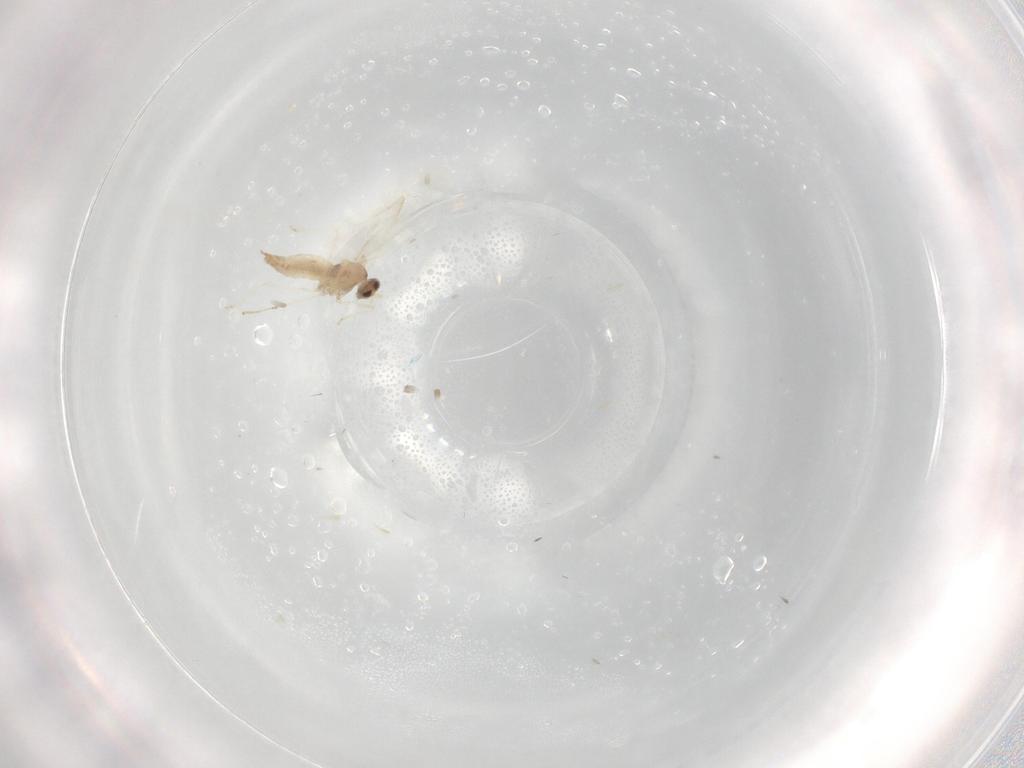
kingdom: Animalia
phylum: Arthropoda
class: Insecta
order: Diptera
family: Cecidomyiidae
